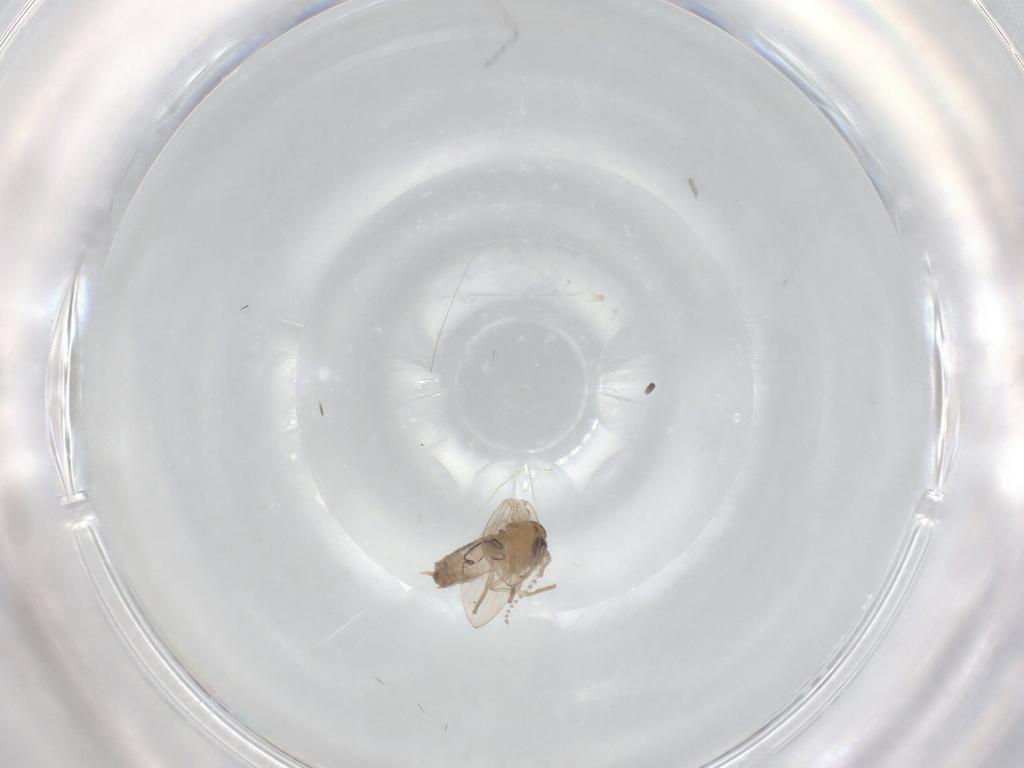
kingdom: Animalia
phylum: Arthropoda
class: Insecta
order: Diptera
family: Psychodidae
